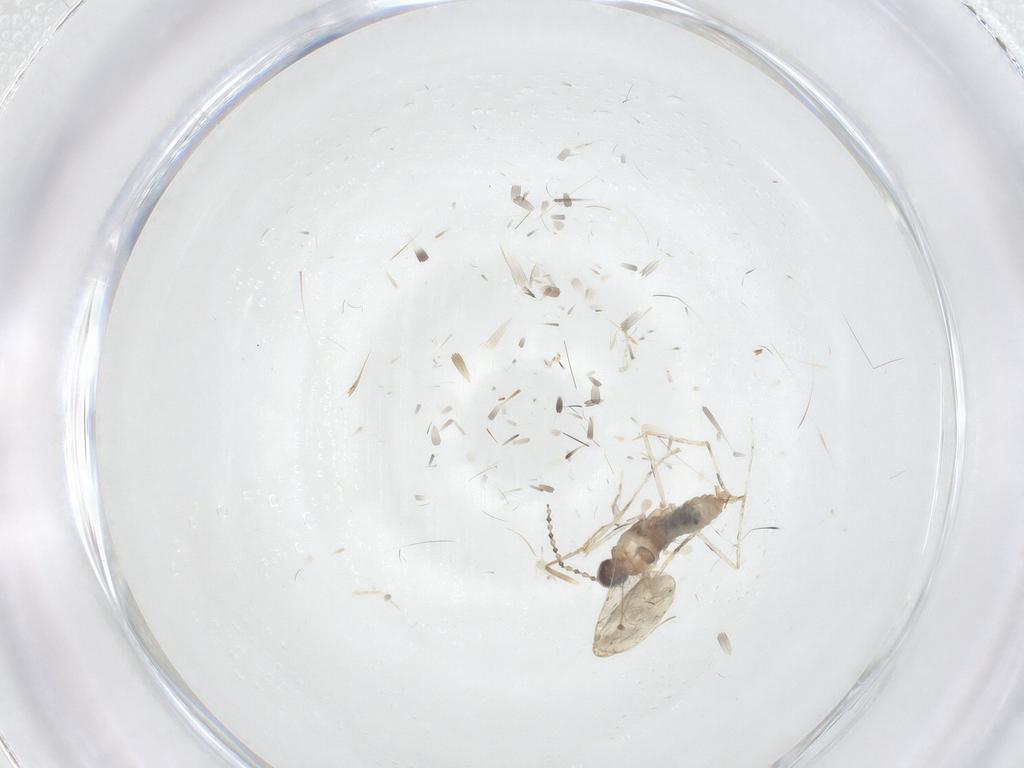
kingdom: Animalia
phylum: Arthropoda
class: Insecta
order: Diptera
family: Cecidomyiidae
